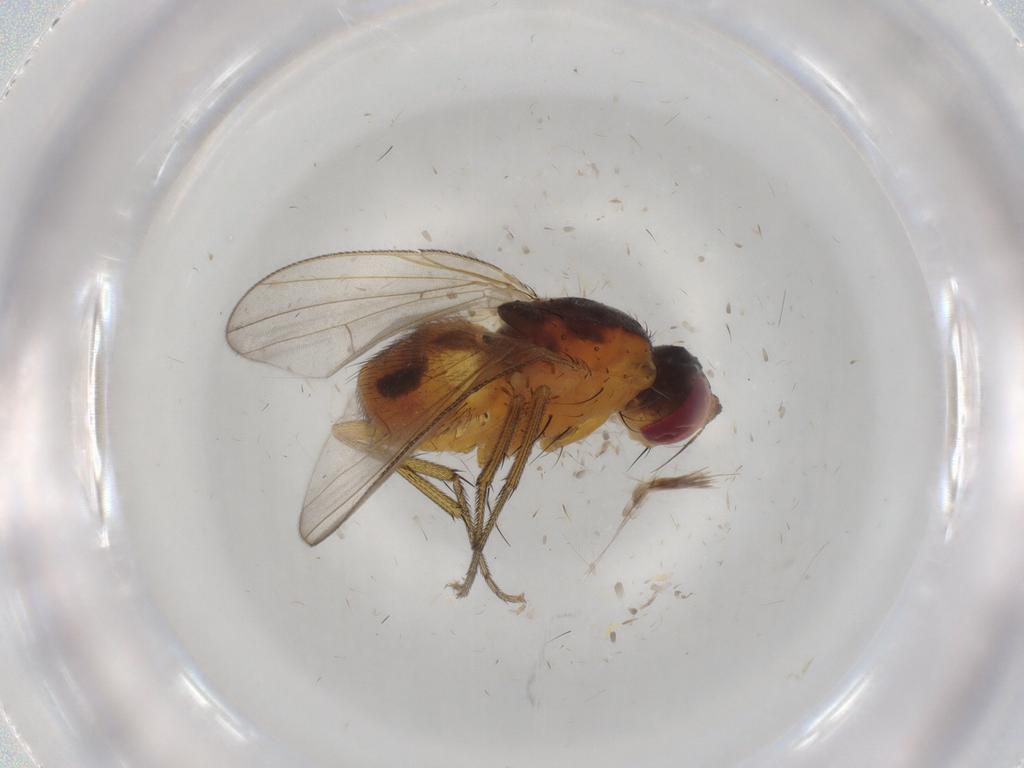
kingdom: Animalia
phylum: Arthropoda
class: Insecta
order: Diptera
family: Muscidae
